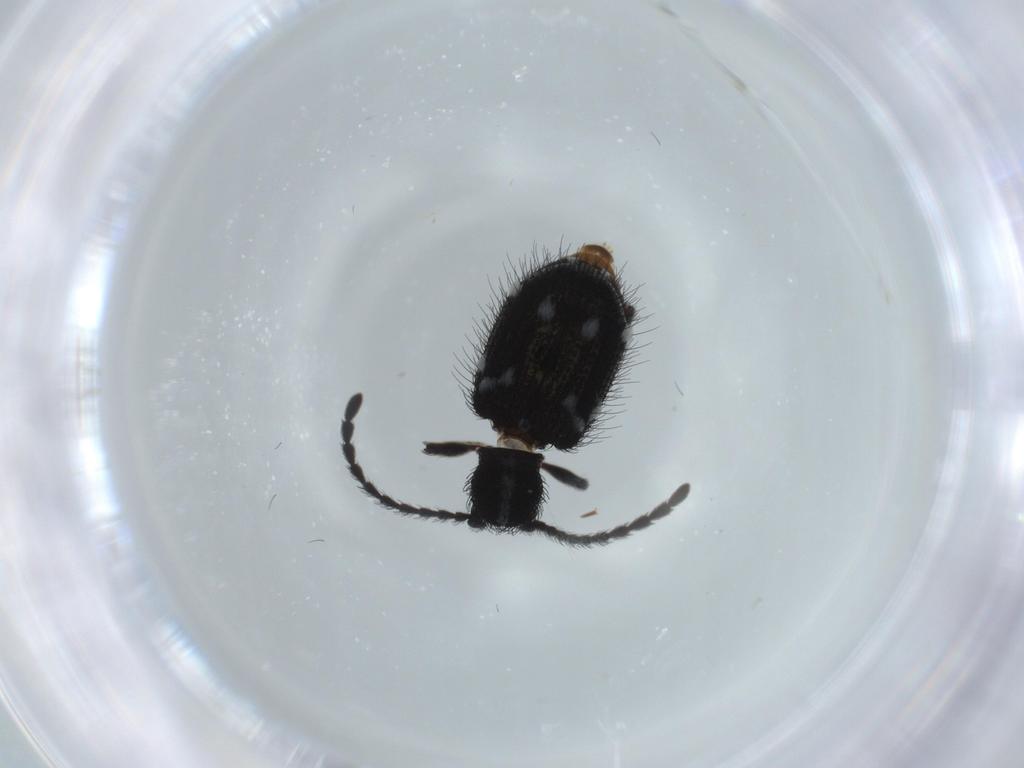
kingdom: Animalia
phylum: Arthropoda
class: Insecta
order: Coleoptera
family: Ptinidae
